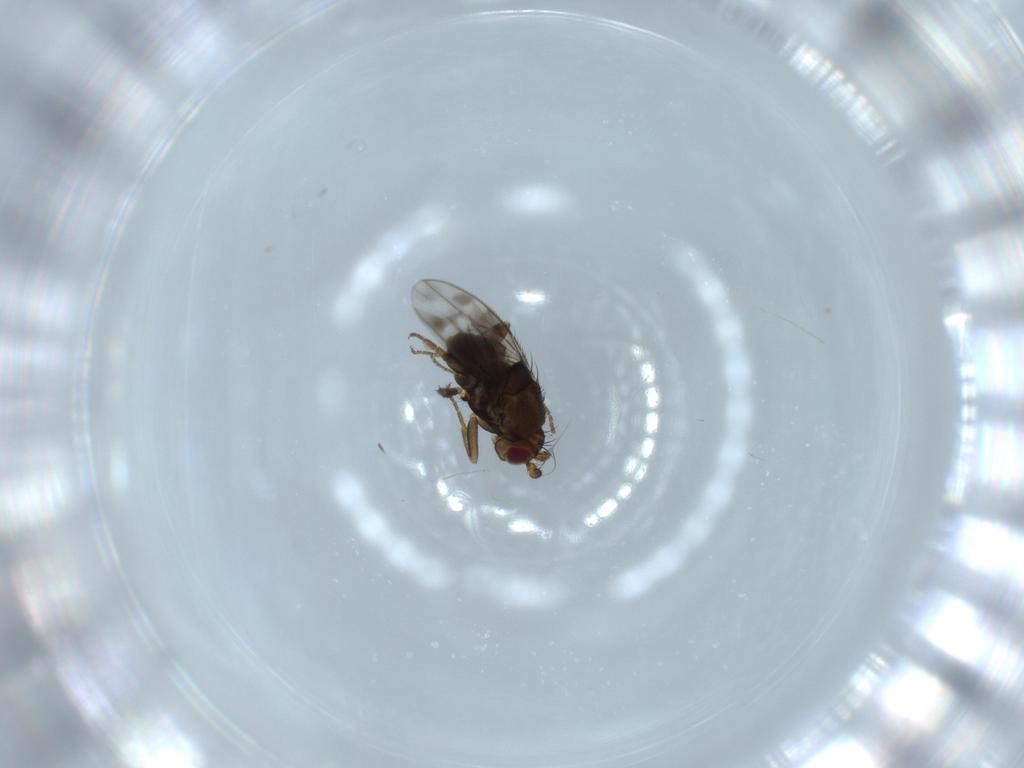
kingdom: Animalia
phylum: Arthropoda
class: Insecta
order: Diptera
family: Sphaeroceridae
